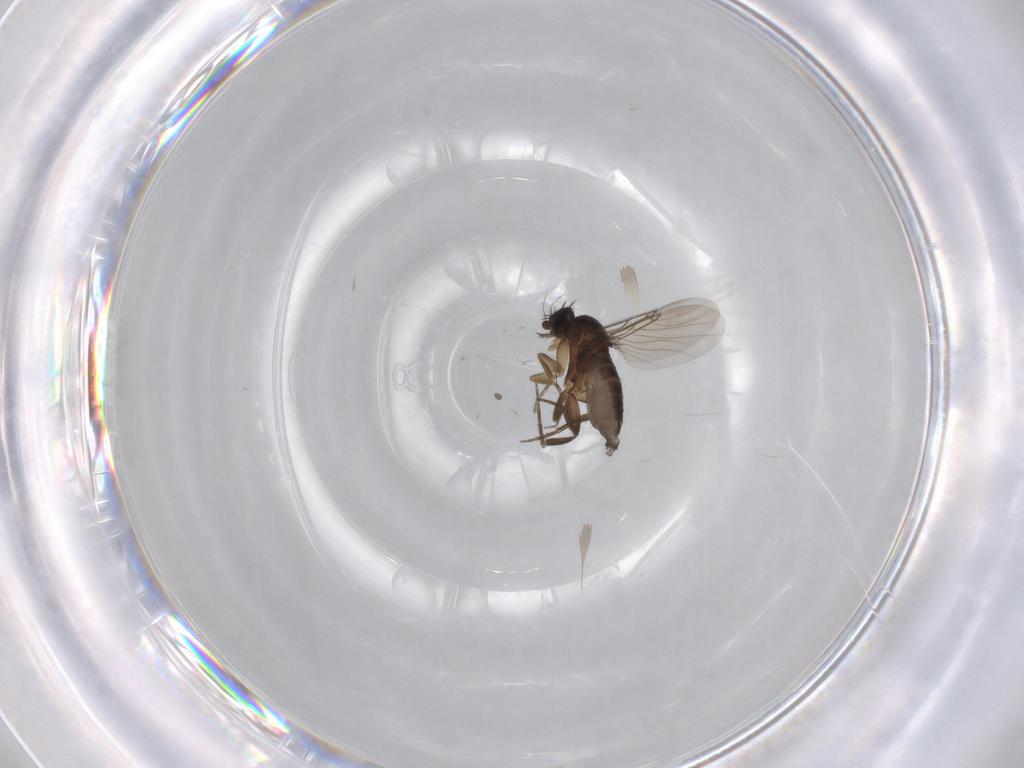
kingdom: Animalia
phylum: Arthropoda
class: Insecta
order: Diptera
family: Phoridae
